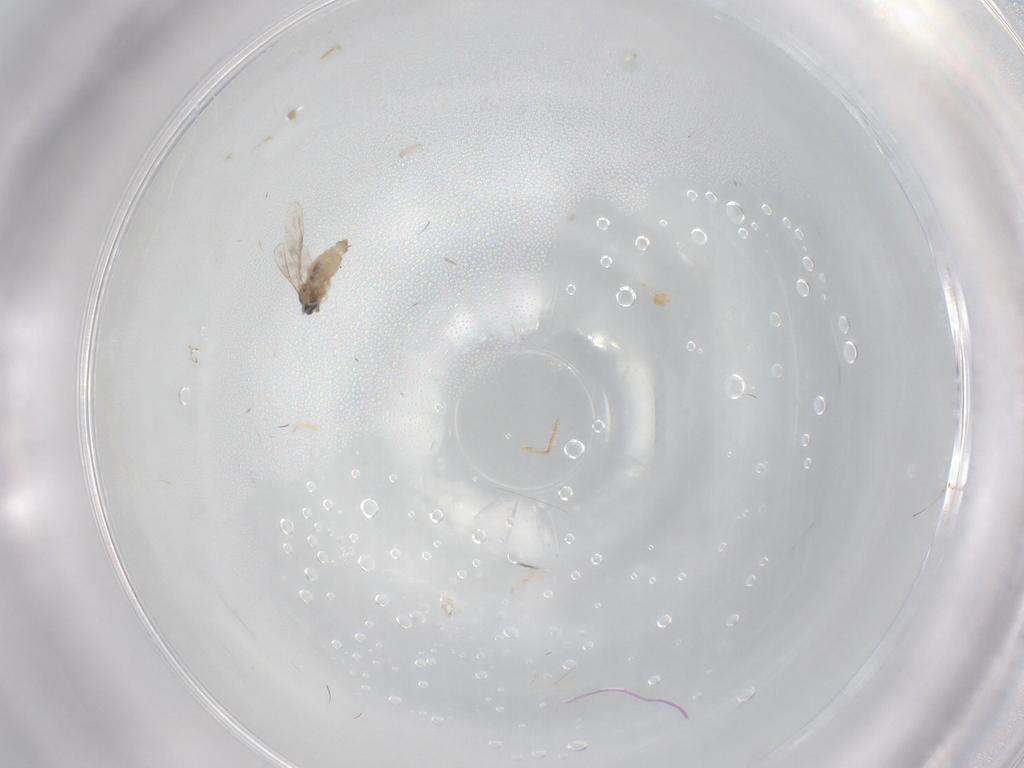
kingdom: Animalia
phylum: Arthropoda
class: Insecta
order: Diptera
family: Cecidomyiidae
